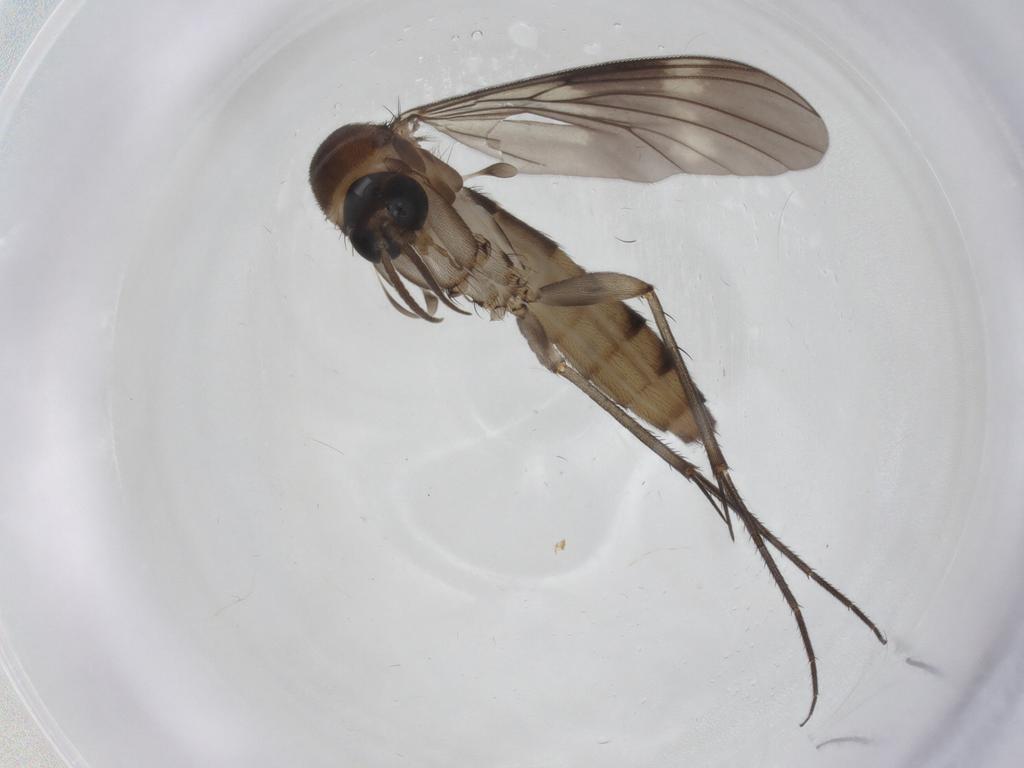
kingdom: Animalia
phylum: Arthropoda
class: Insecta
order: Diptera
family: Mycetophilidae
